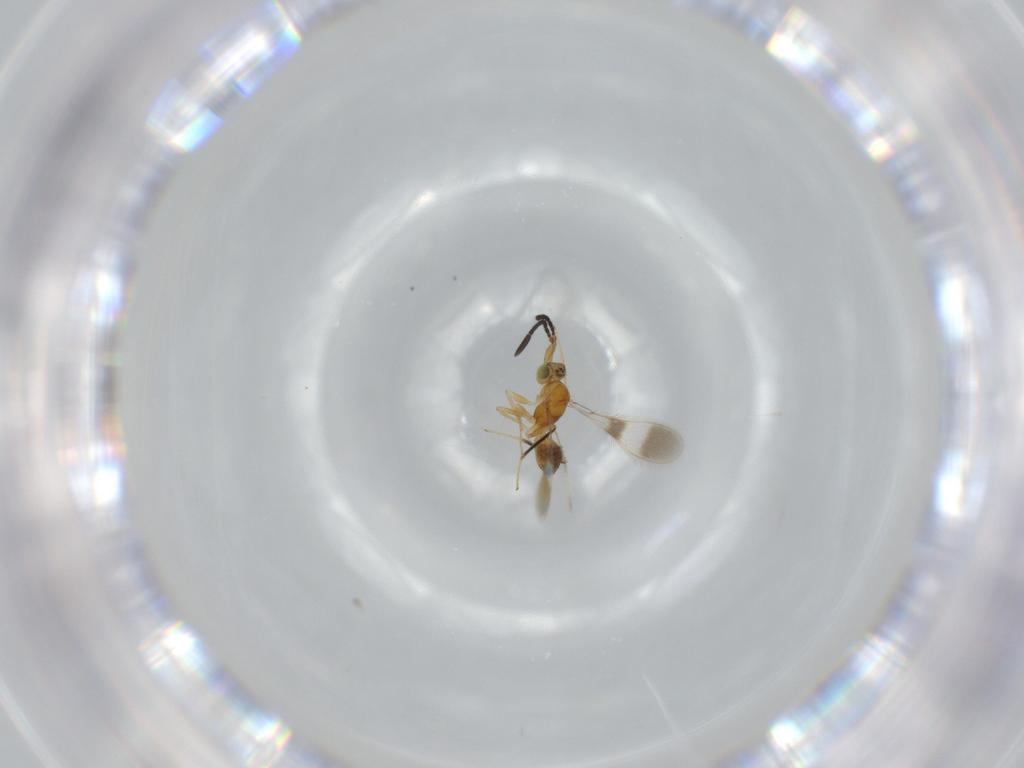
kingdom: Animalia
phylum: Arthropoda
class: Insecta
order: Hymenoptera
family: Mymaridae
